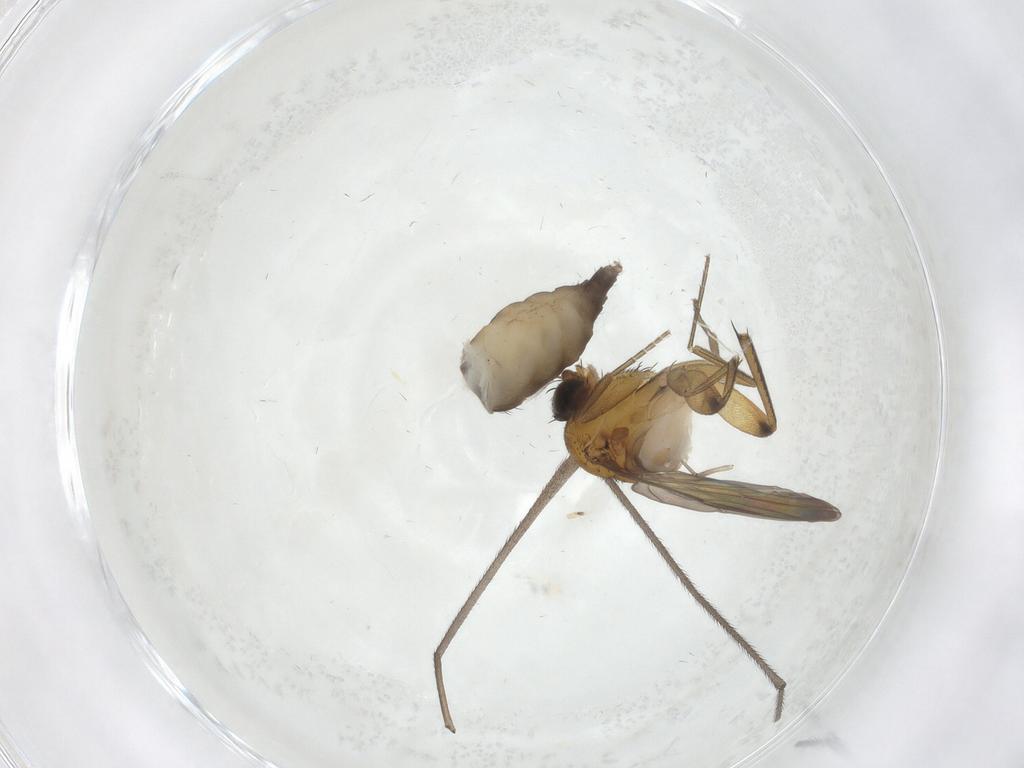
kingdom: Animalia
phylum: Arthropoda
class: Insecta
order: Diptera
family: Phoridae
